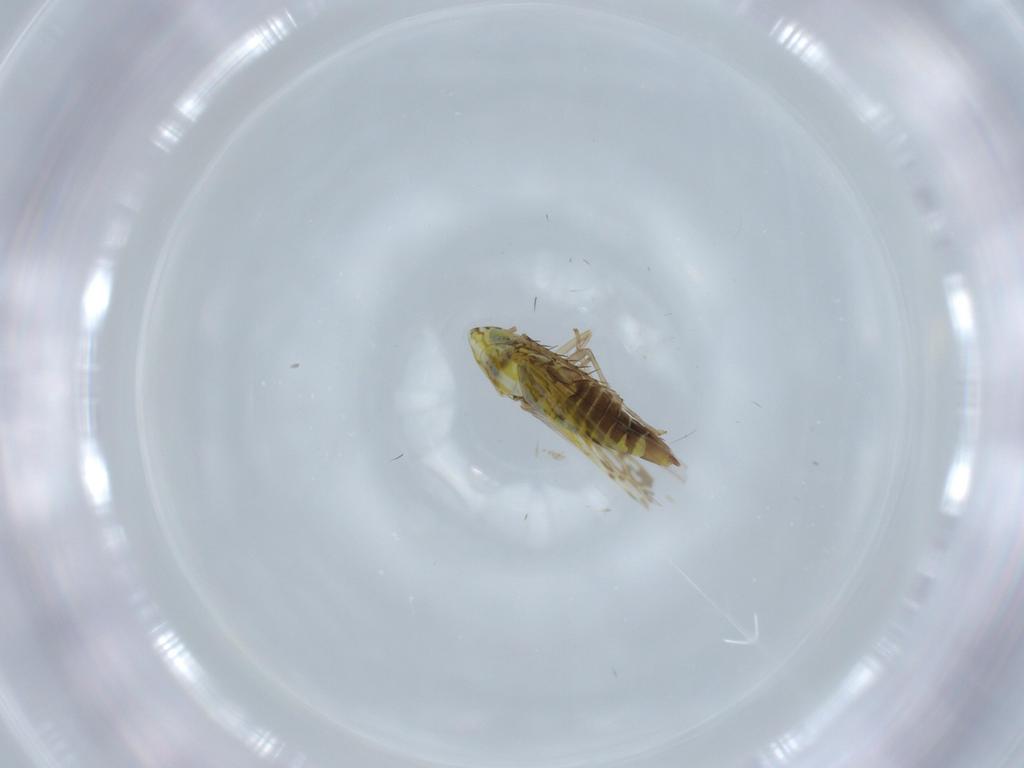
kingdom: Animalia
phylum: Arthropoda
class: Insecta
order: Hemiptera
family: Cicadellidae
